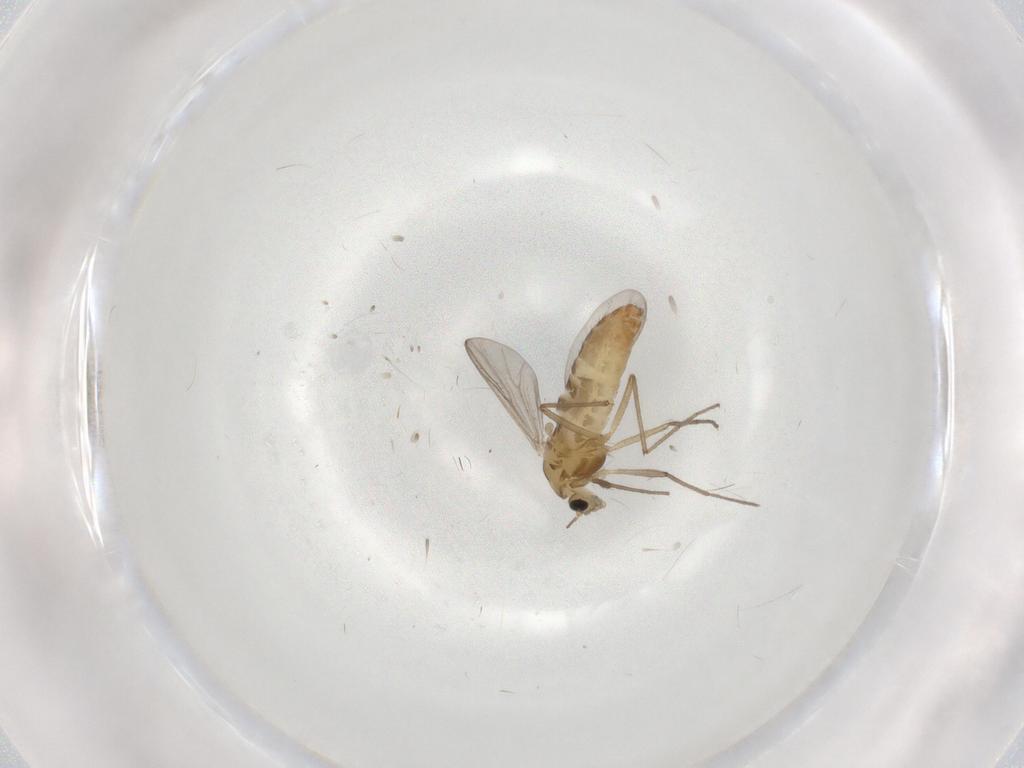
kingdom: Animalia
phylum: Arthropoda
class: Insecta
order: Diptera
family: Chironomidae
